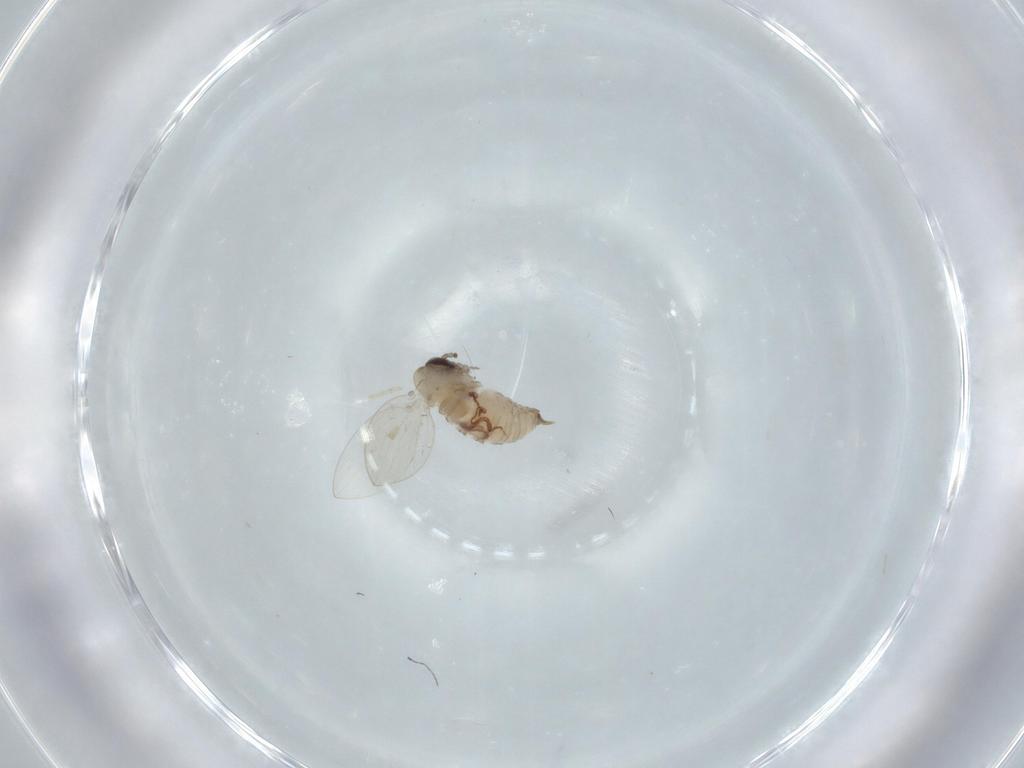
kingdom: Animalia
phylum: Arthropoda
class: Insecta
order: Diptera
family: Psychodidae
